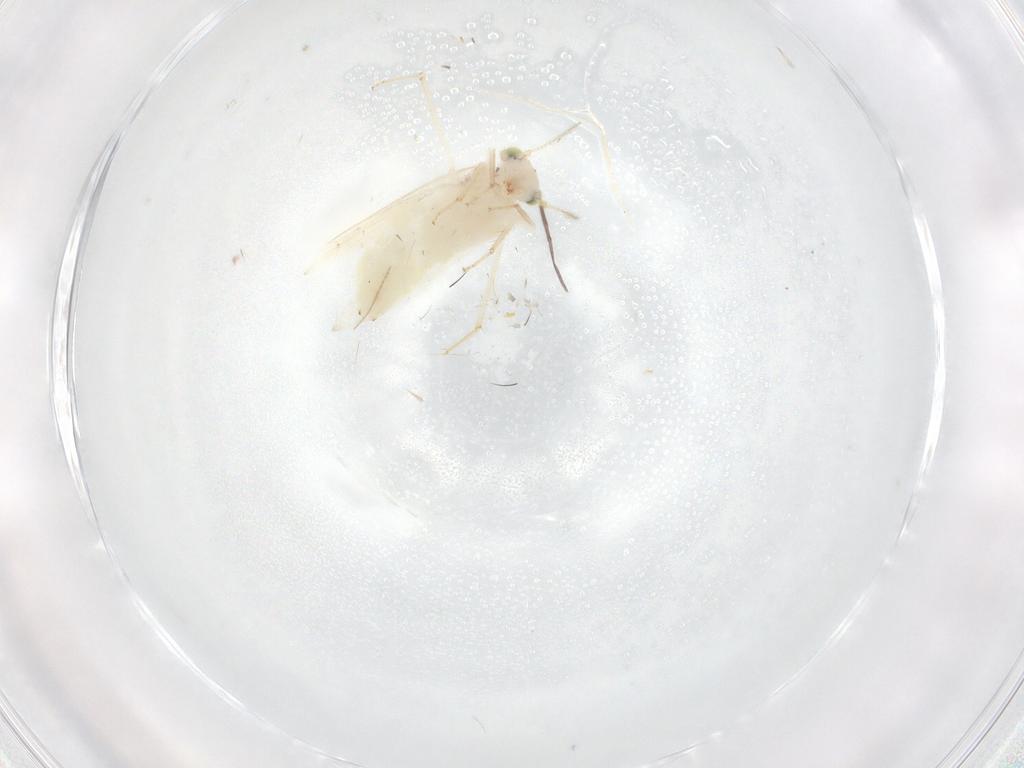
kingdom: Animalia
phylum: Arthropoda
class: Insecta
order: Psocodea
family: Lepidopsocidae
